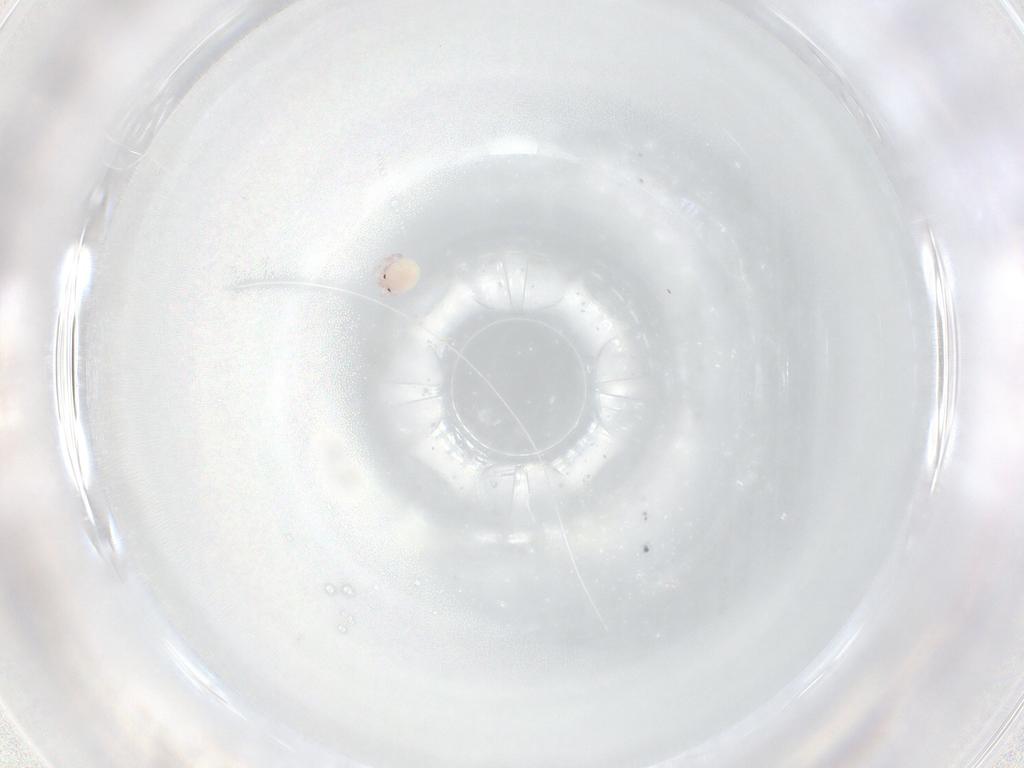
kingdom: Animalia
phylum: Arthropoda
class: Arachnida
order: Trombidiformes
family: Lebertiidae
